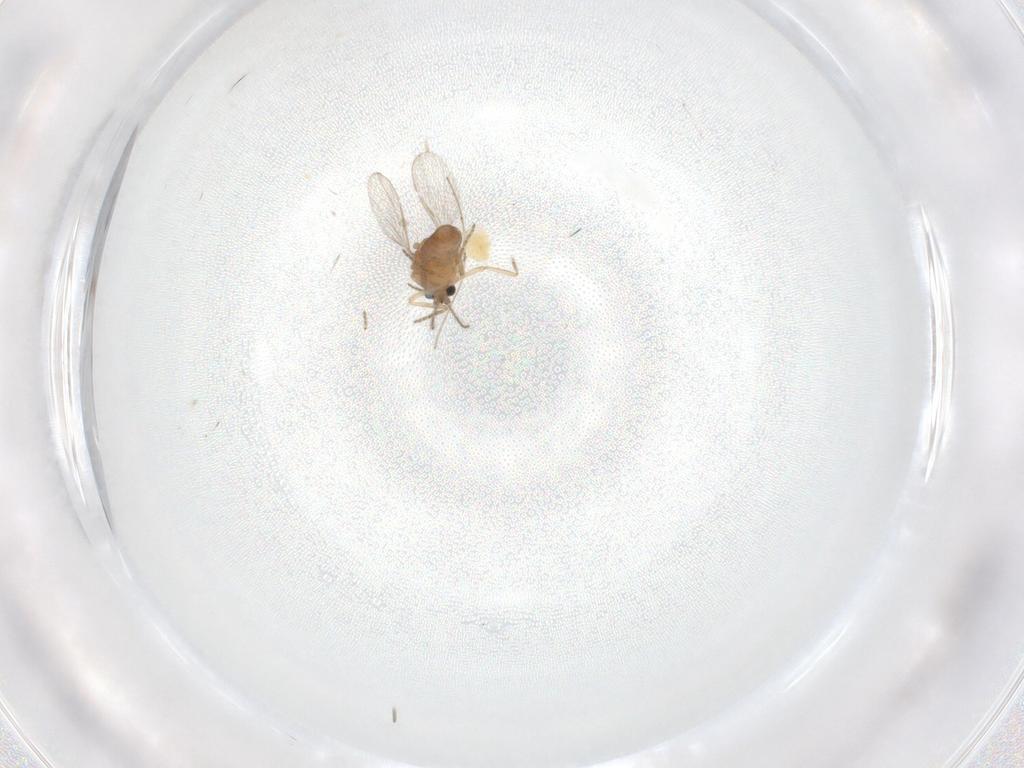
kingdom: Animalia
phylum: Arthropoda
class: Insecta
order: Diptera
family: Ceratopogonidae
